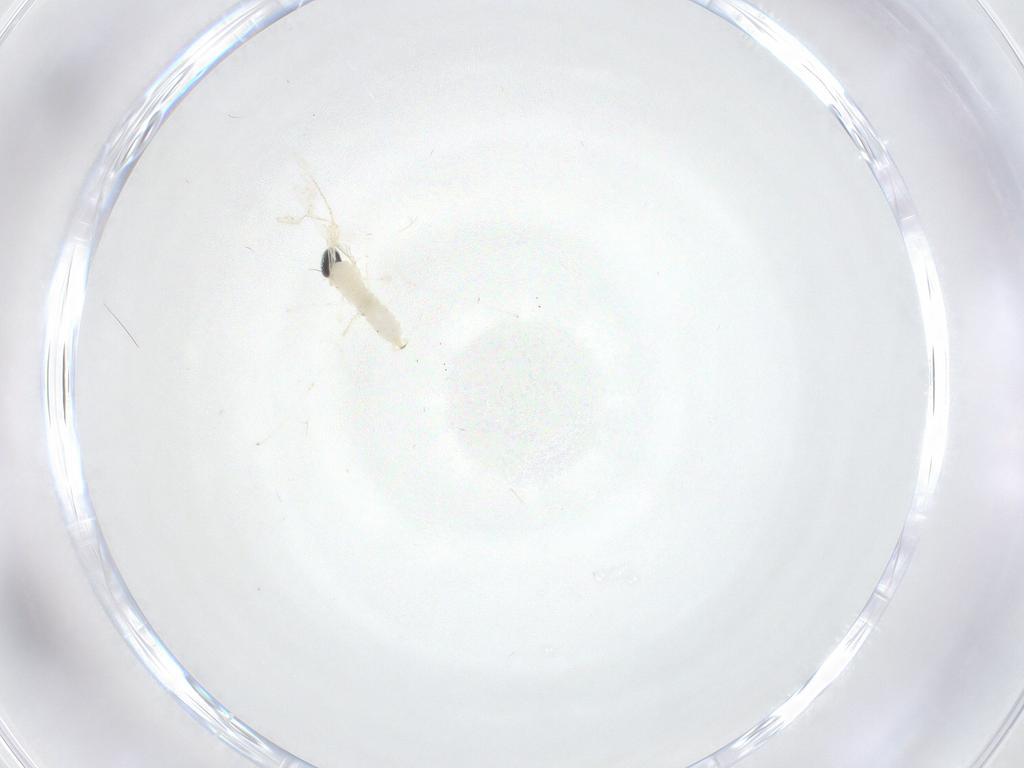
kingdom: Animalia
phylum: Arthropoda
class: Insecta
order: Diptera
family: Cecidomyiidae
